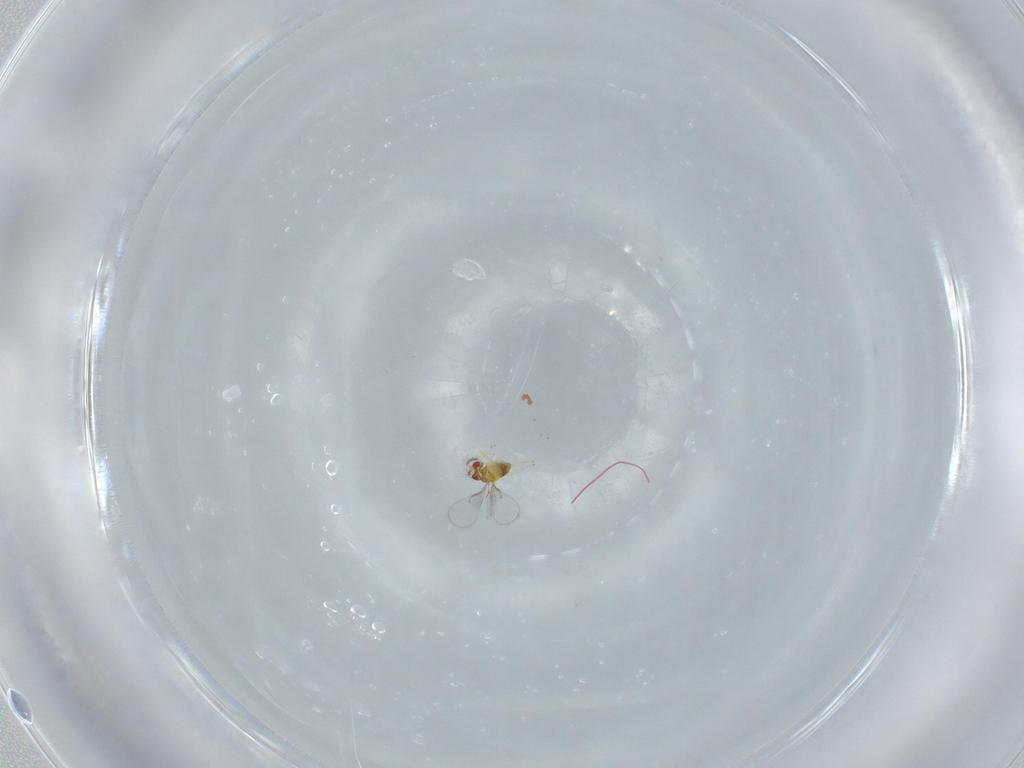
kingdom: Animalia
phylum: Arthropoda
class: Insecta
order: Hymenoptera
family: Trichogrammatidae
